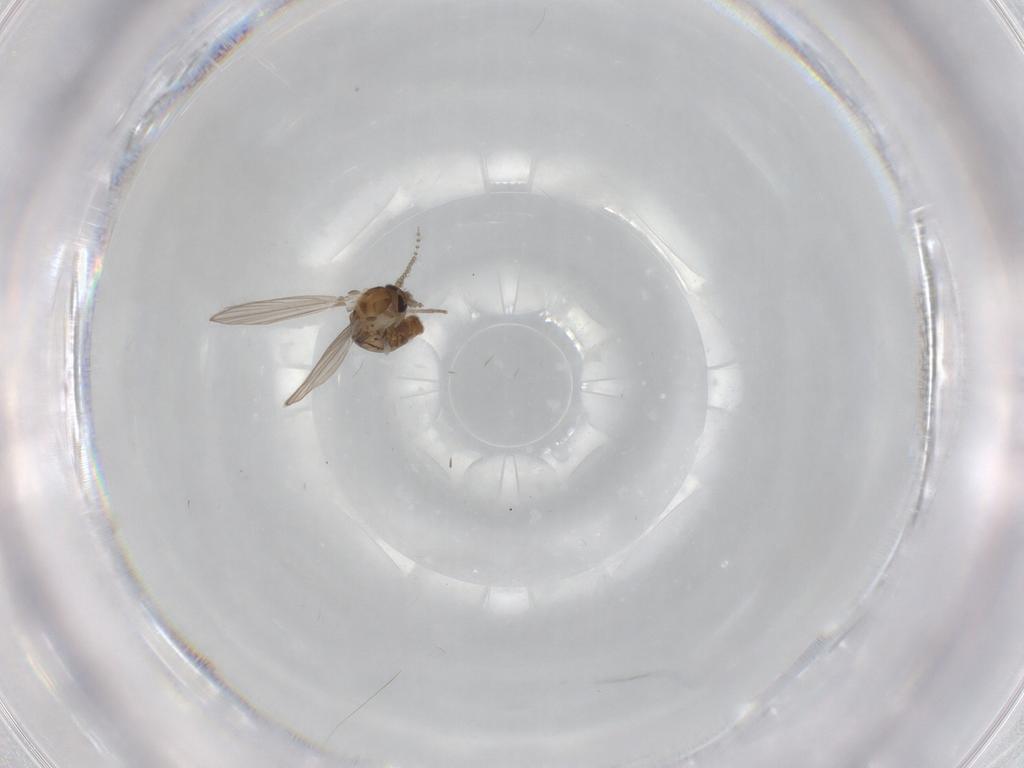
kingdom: Animalia
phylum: Arthropoda
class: Insecta
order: Diptera
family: Psychodidae
